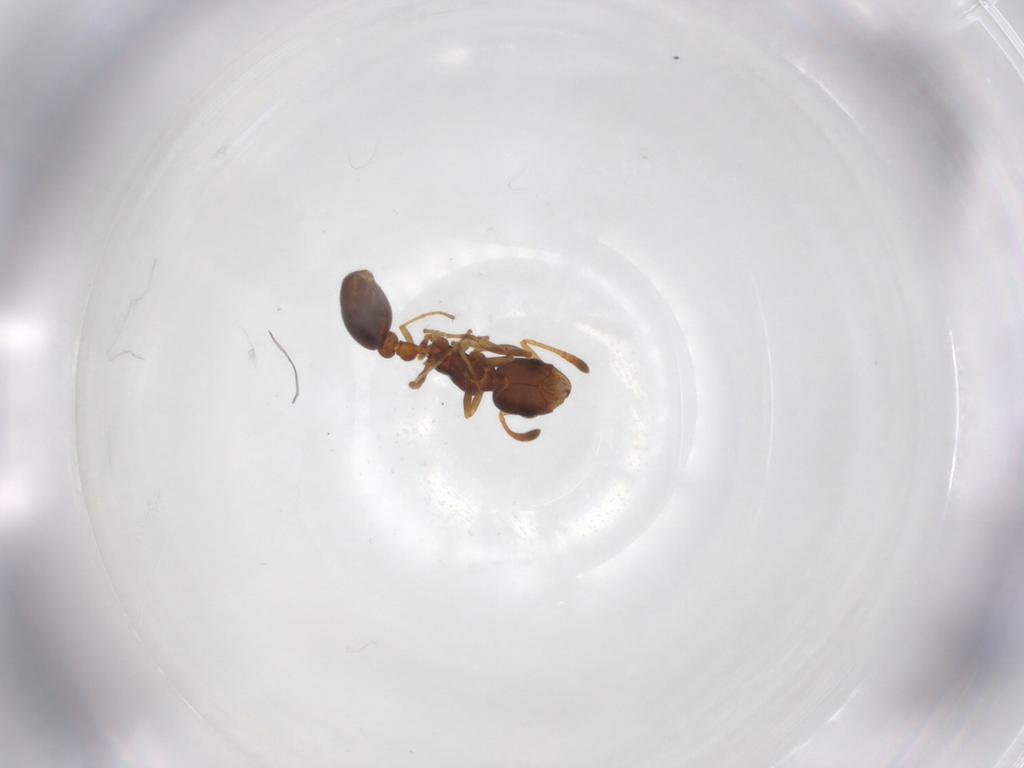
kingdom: Animalia
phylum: Arthropoda
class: Insecta
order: Hymenoptera
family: Formicidae
